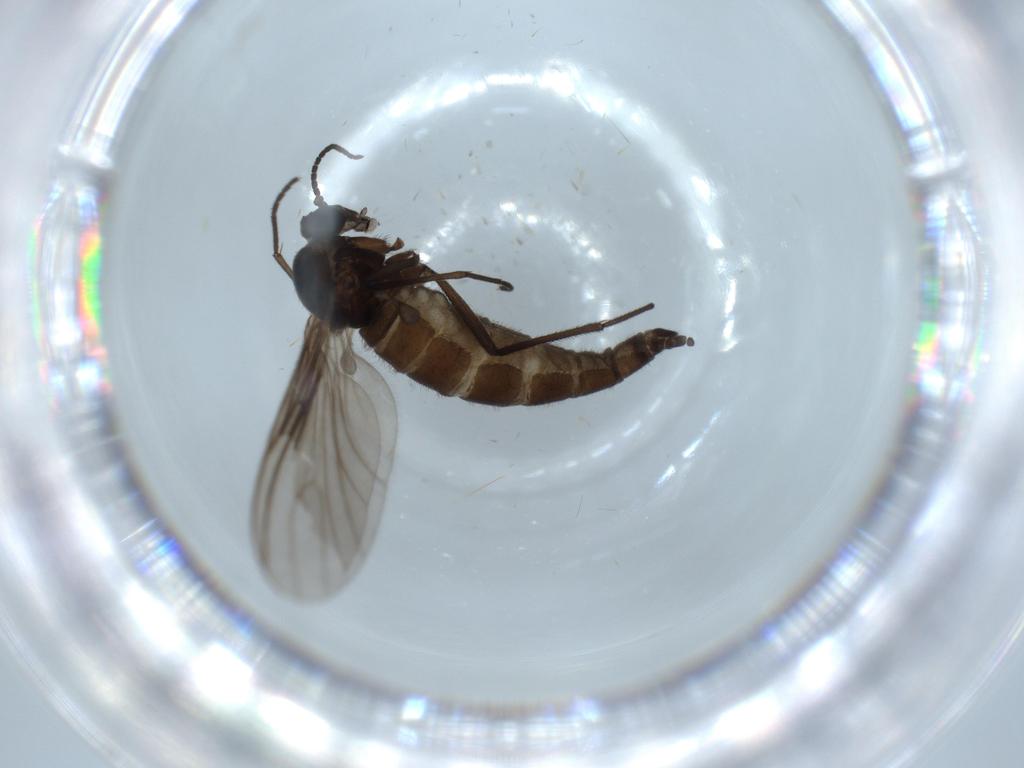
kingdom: Animalia
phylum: Arthropoda
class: Insecta
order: Diptera
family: Sciaridae
